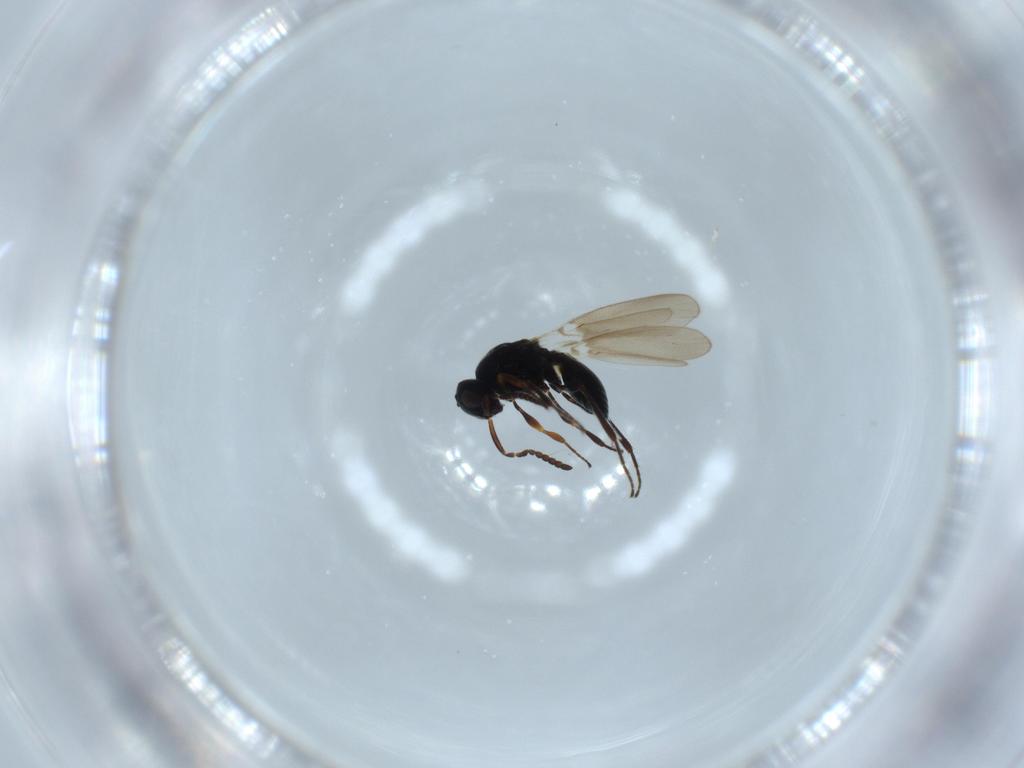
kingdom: Animalia
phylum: Arthropoda
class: Insecta
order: Hymenoptera
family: Platygastridae
